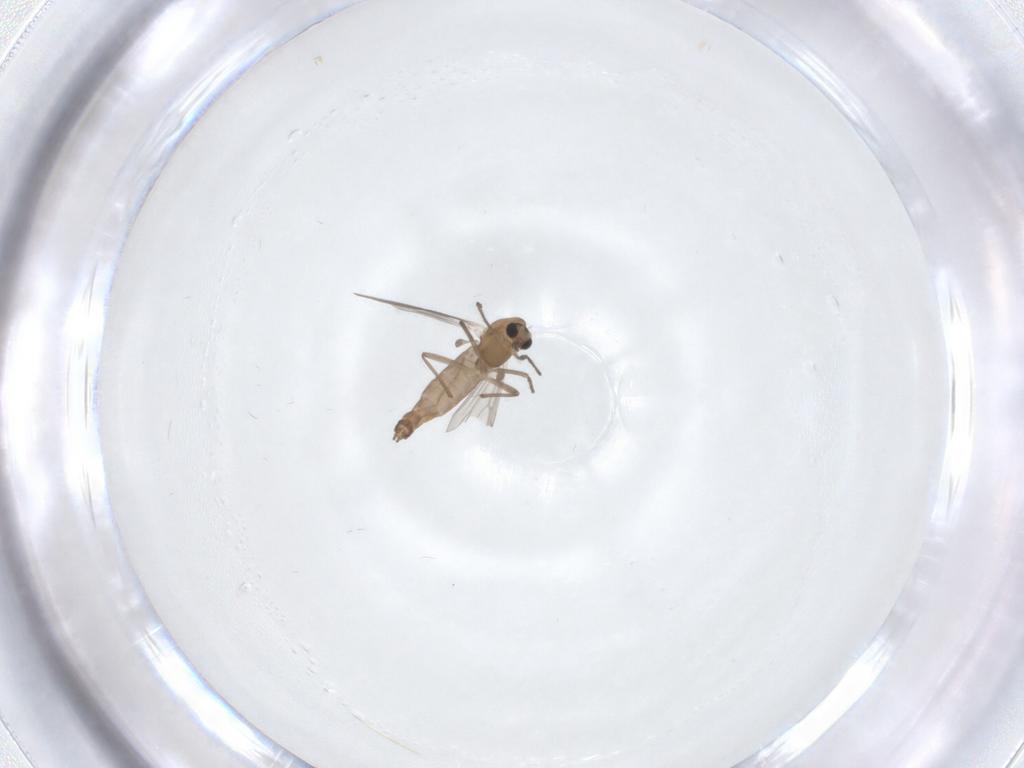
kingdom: Animalia
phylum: Arthropoda
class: Insecta
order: Diptera
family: Chironomidae
